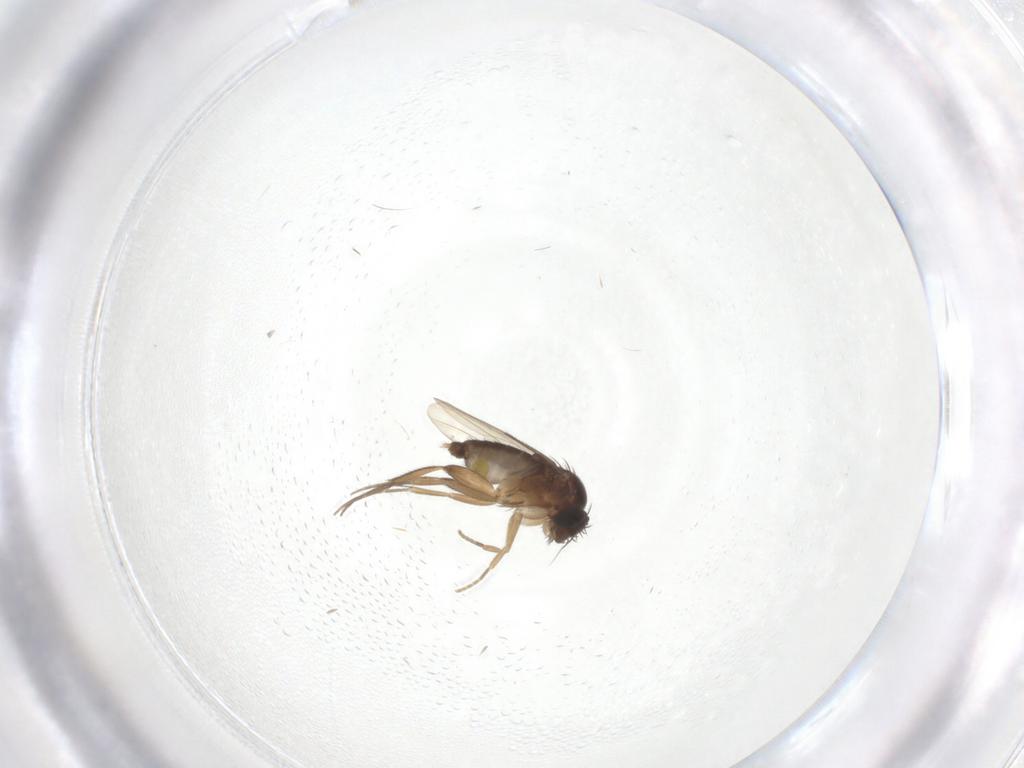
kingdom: Animalia
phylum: Arthropoda
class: Insecta
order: Diptera
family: Phoridae
